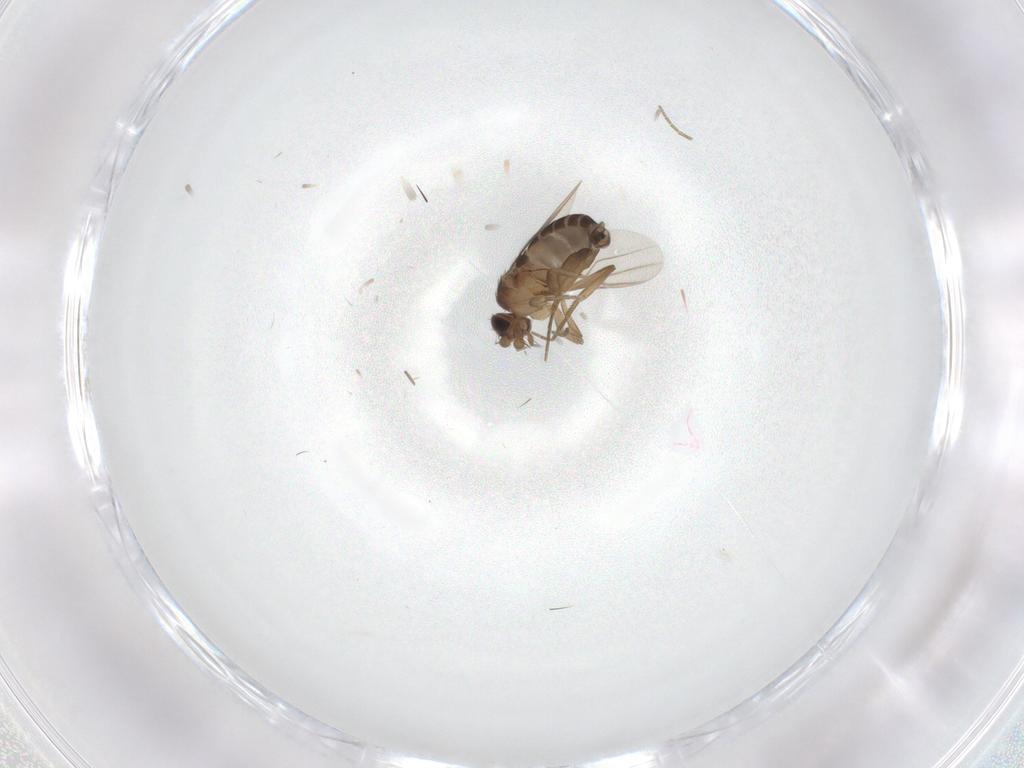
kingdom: Animalia
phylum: Arthropoda
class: Insecta
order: Diptera
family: Phoridae
